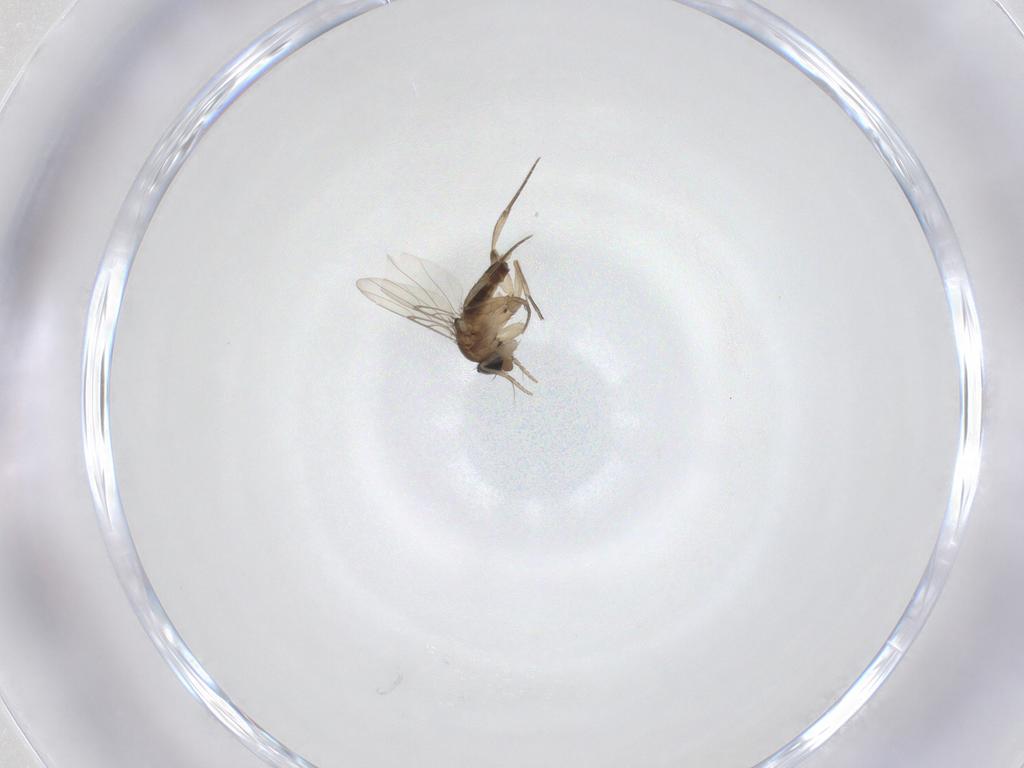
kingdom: Animalia
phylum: Arthropoda
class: Insecta
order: Diptera
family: Phoridae
